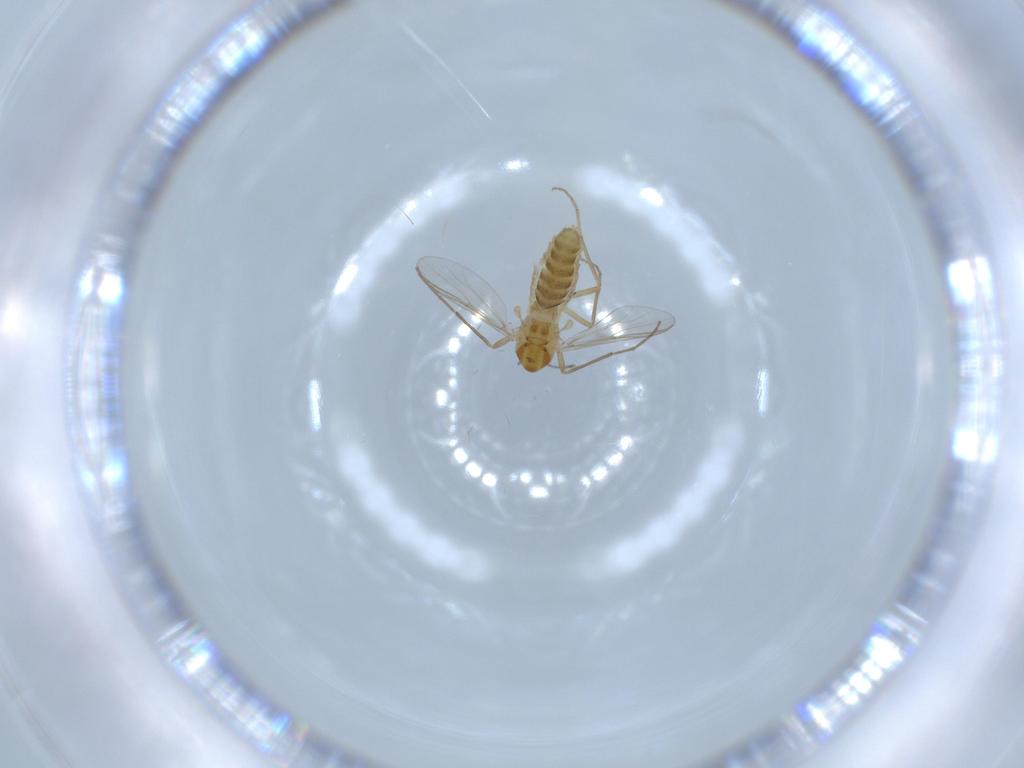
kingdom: Animalia
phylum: Arthropoda
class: Insecta
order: Diptera
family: Chironomidae
